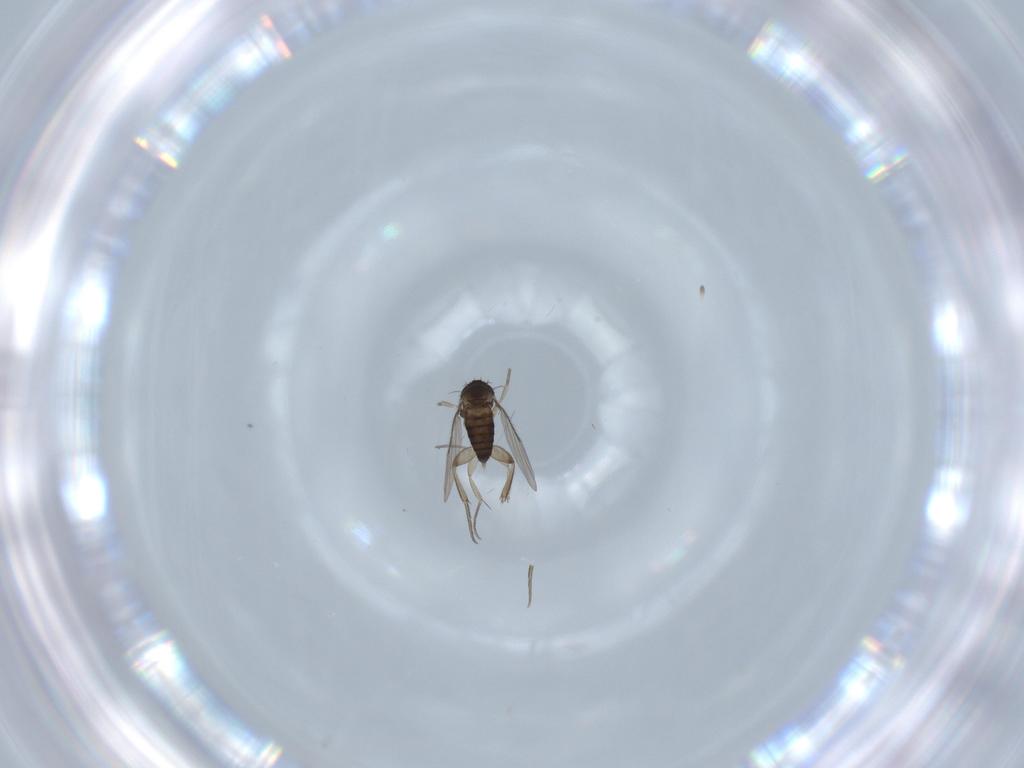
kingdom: Animalia
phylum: Arthropoda
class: Insecta
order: Diptera
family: Phoridae
